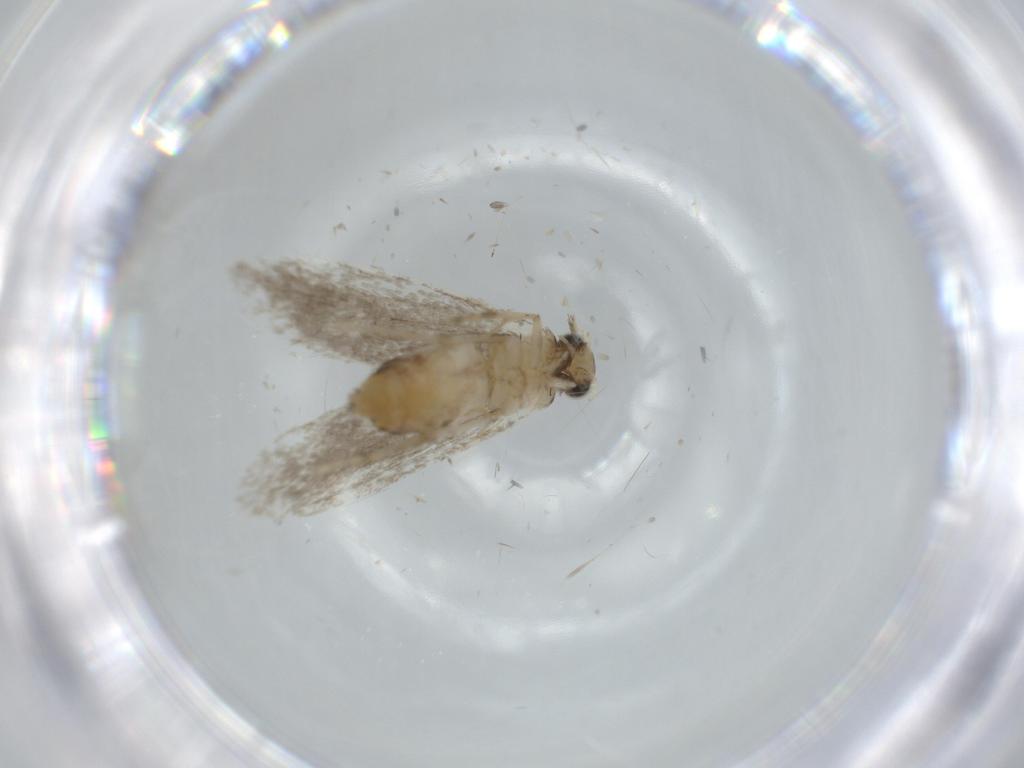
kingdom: Animalia
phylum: Arthropoda
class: Insecta
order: Lepidoptera
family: Tineidae
